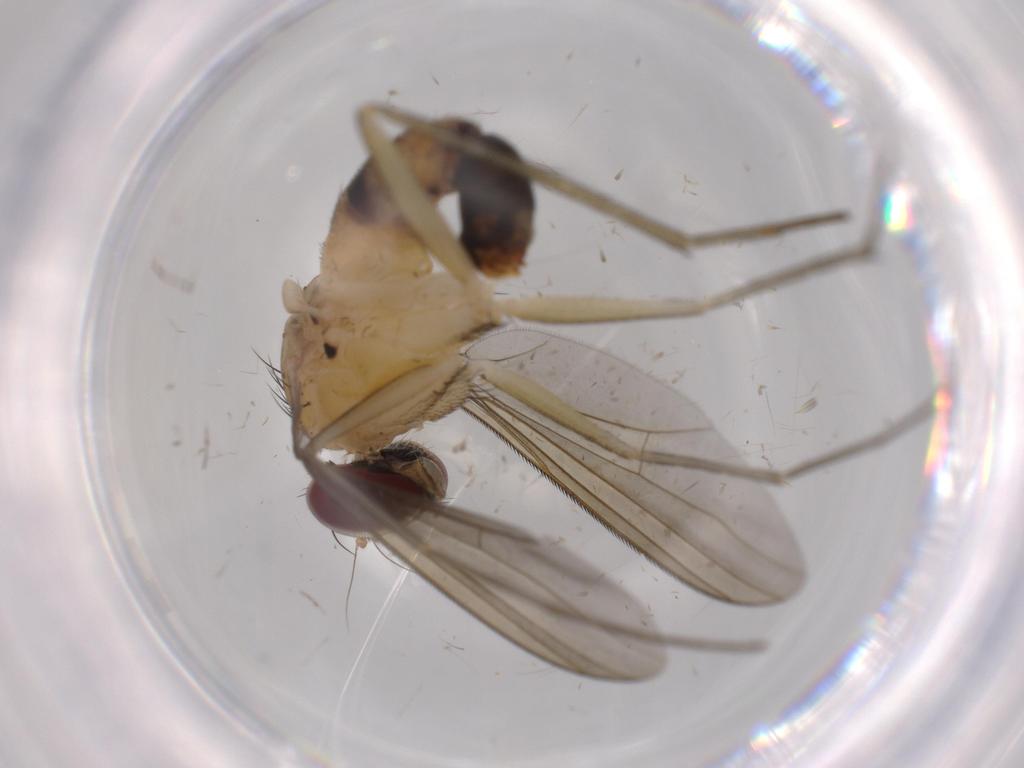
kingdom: Animalia
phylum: Arthropoda
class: Insecta
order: Diptera
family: Dolichopodidae
